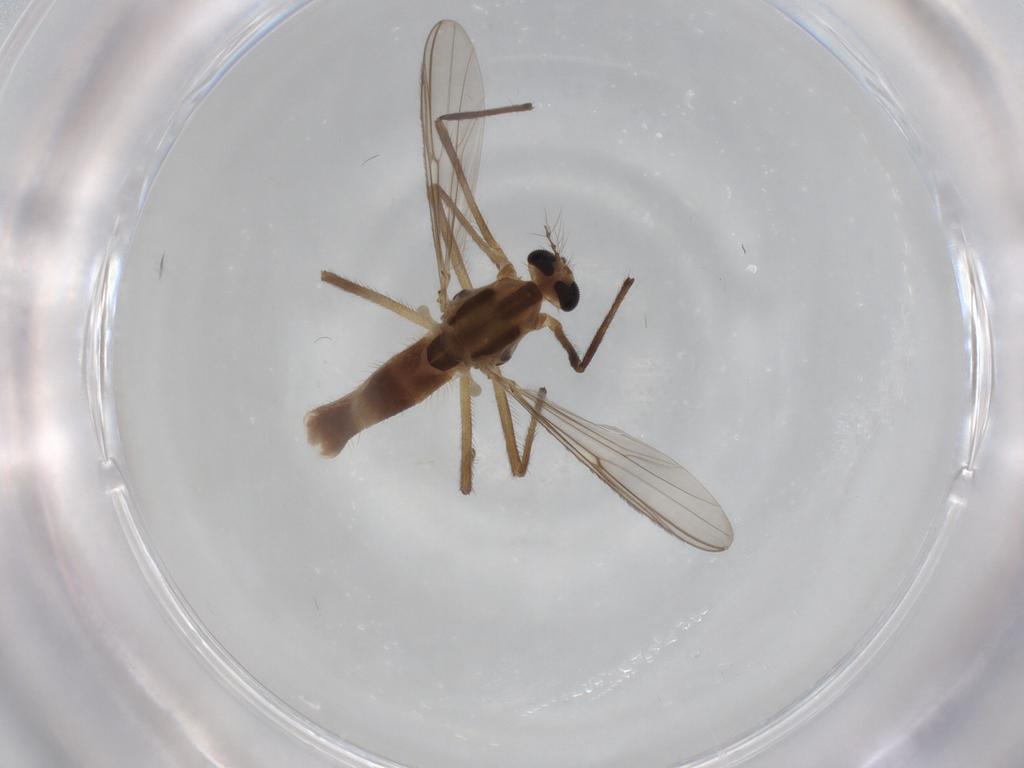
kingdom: Animalia
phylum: Arthropoda
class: Insecta
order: Diptera
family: Chironomidae
